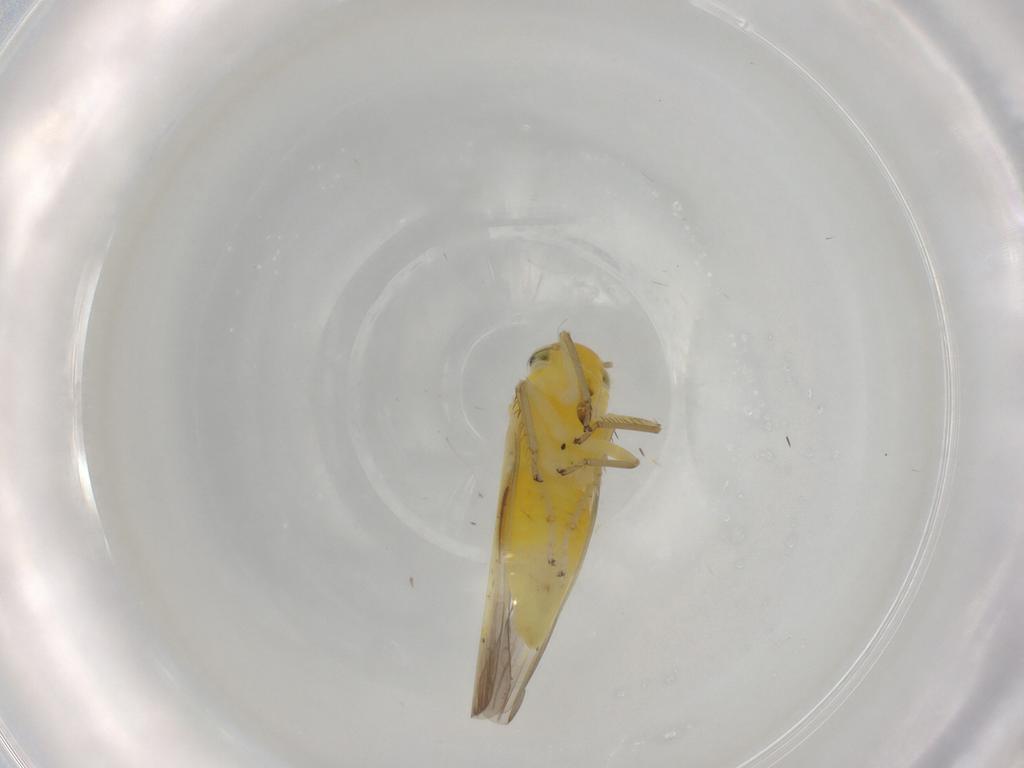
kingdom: Animalia
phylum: Arthropoda
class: Insecta
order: Hemiptera
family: Cicadellidae
